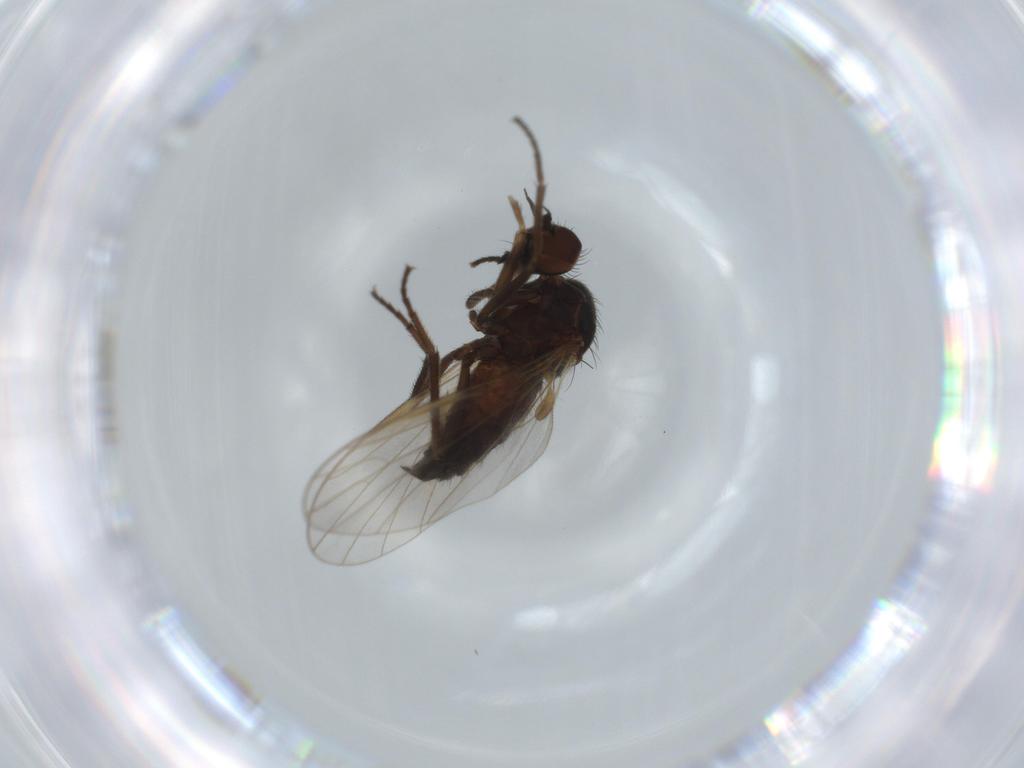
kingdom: Animalia
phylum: Arthropoda
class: Insecta
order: Diptera
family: Empididae
